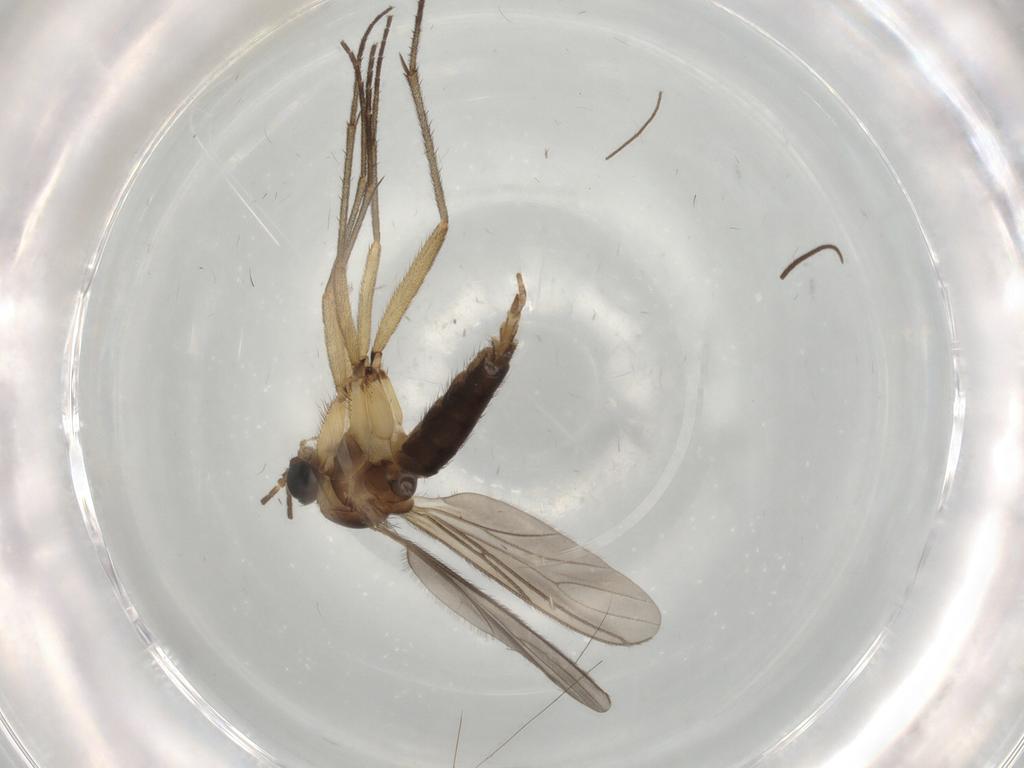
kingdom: Animalia
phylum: Arthropoda
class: Insecta
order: Diptera
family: Sciaridae
